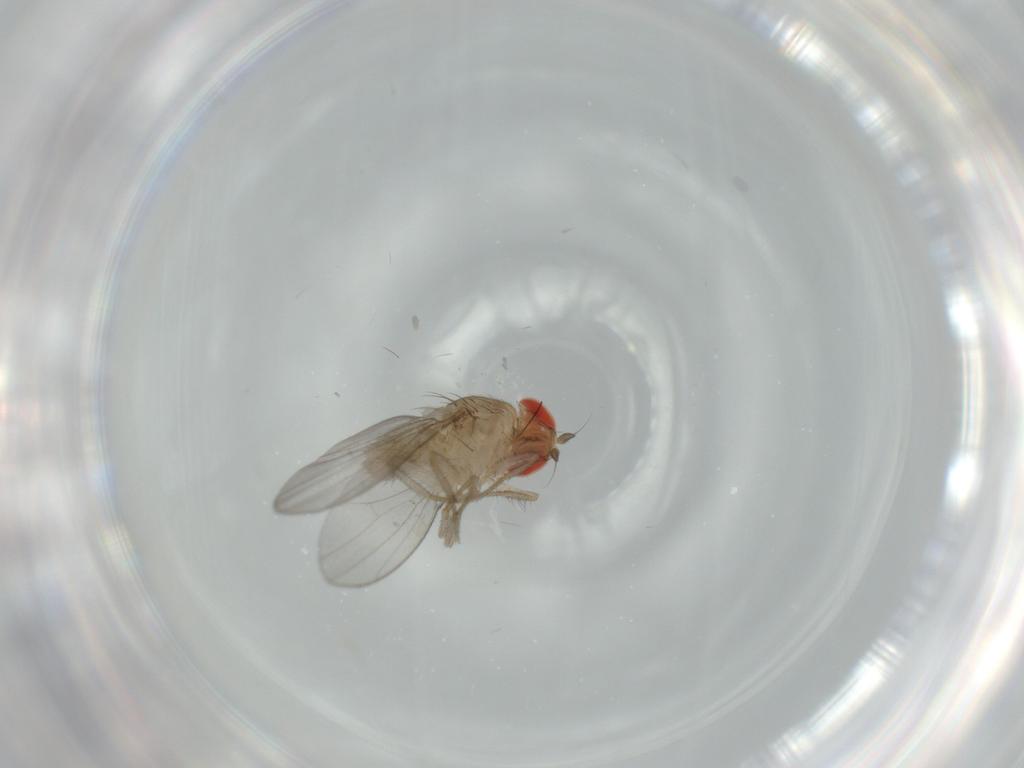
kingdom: Animalia
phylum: Arthropoda
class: Insecta
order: Diptera
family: Drosophilidae
